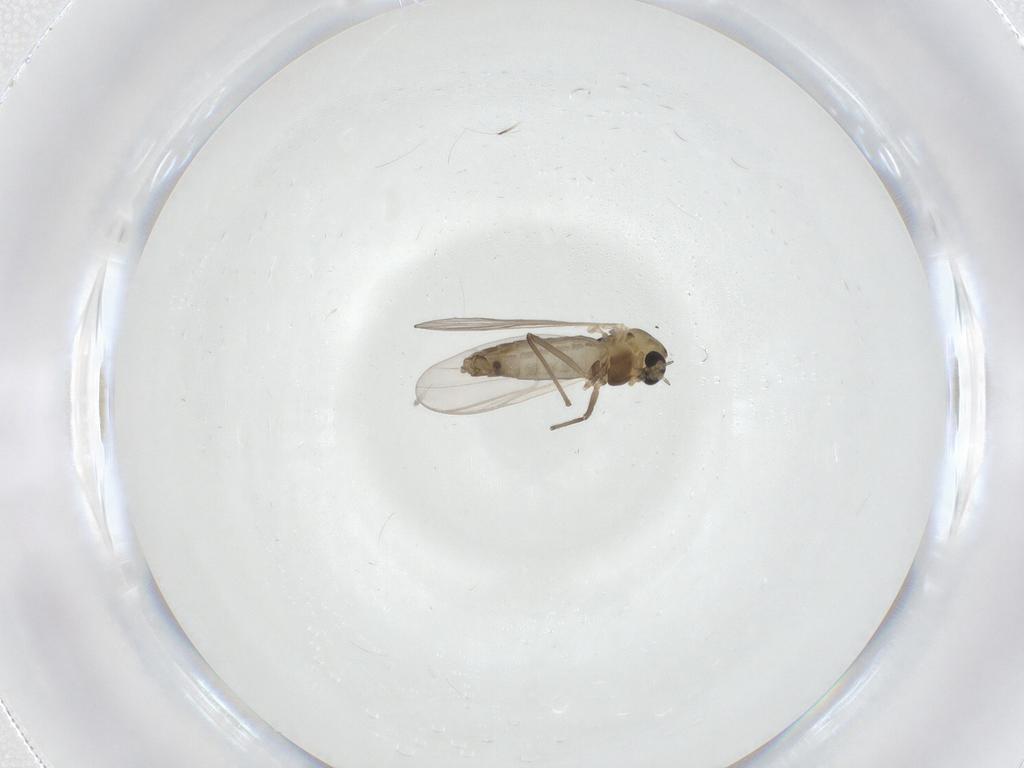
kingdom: Animalia
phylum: Arthropoda
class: Insecta
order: Diptera
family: Chironomidae
